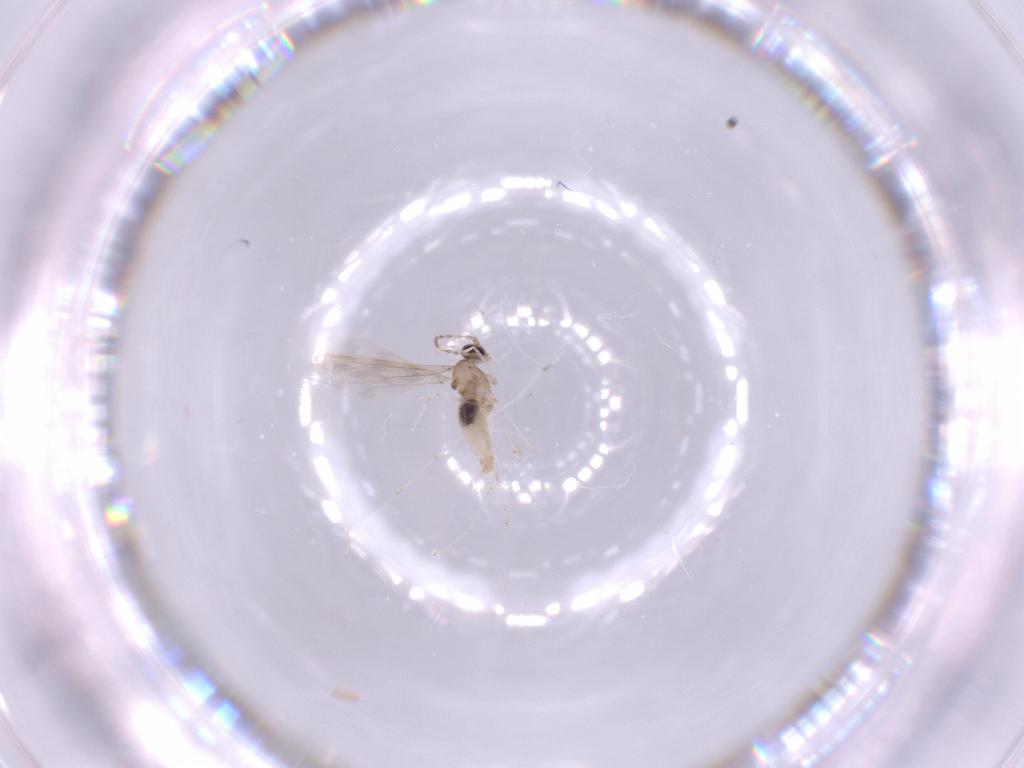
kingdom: Animalia
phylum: Arthropoda
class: Insecta
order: Diptera
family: Cecidomyiidae
